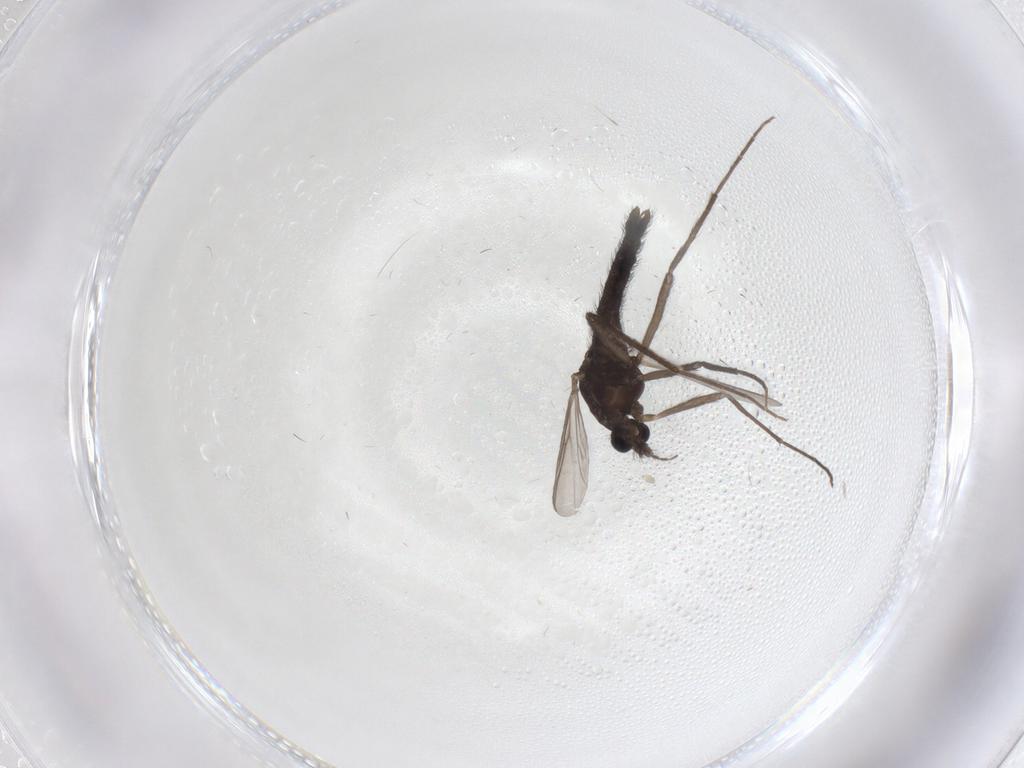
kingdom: Animalia
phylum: Arthropoda
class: Insecta
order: Diptera
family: Chironomidae
